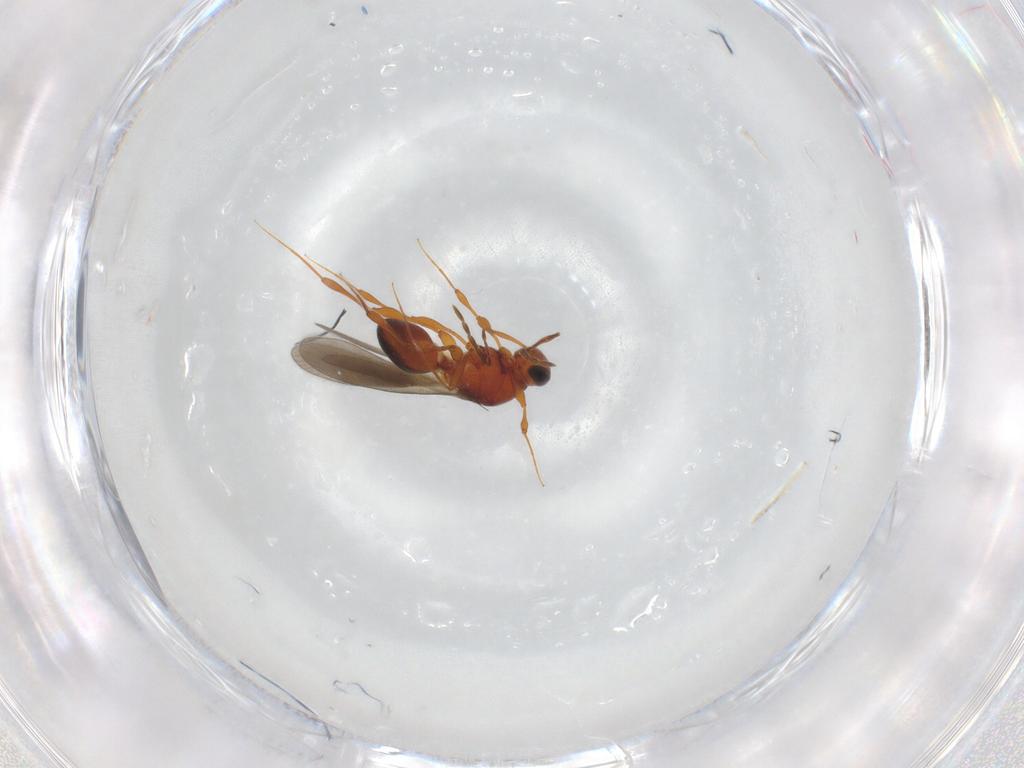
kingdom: Animalia
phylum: Arthropoda
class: Insecta
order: Hymenoptera
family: Platygastridae
